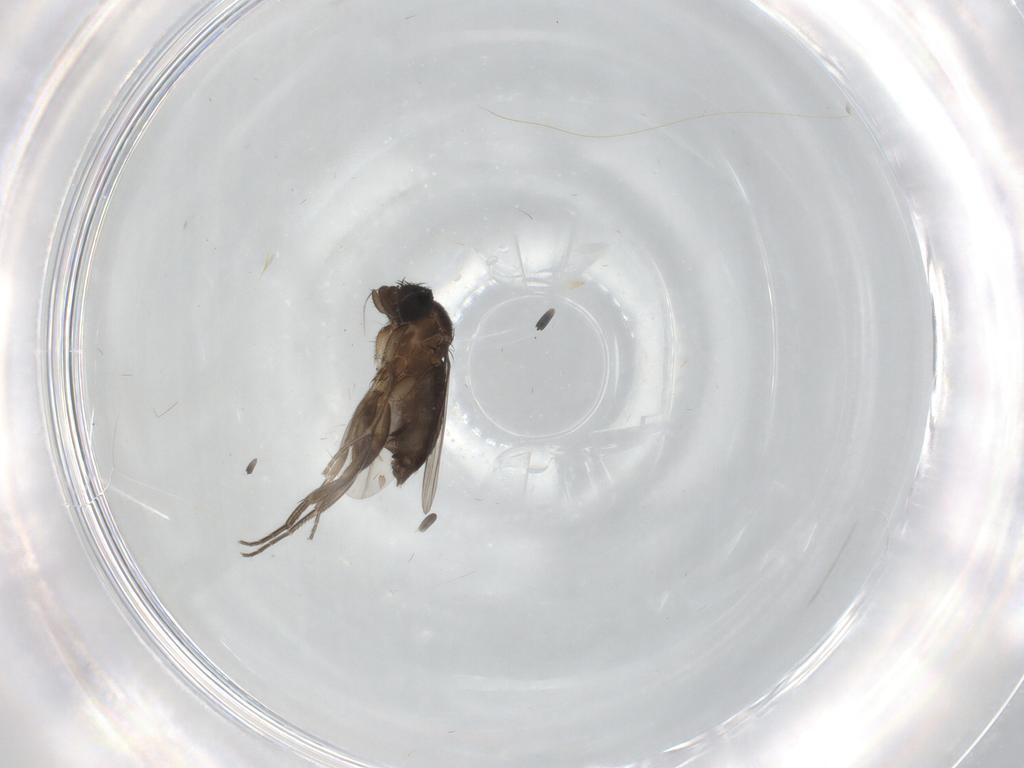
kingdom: Animalia
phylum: Arthropoda
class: Insecta
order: Diptera
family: Phoridae
